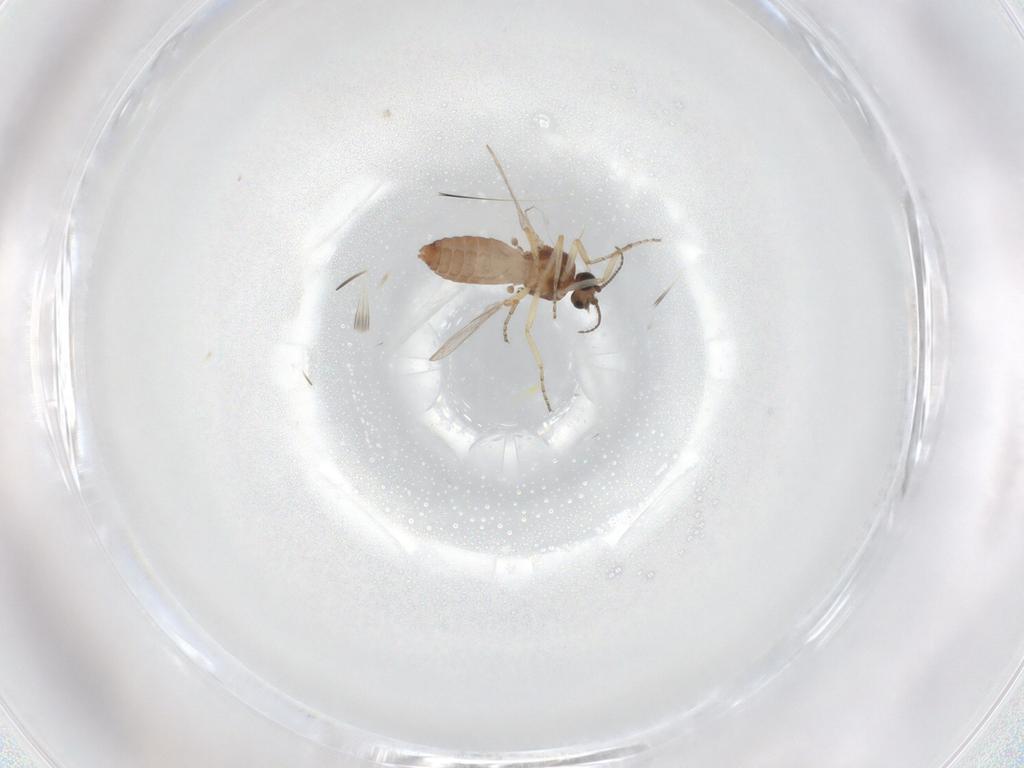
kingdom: Animalia
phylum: Arthropoda
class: Insecta
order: Diptera
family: Ceratopogonidae
